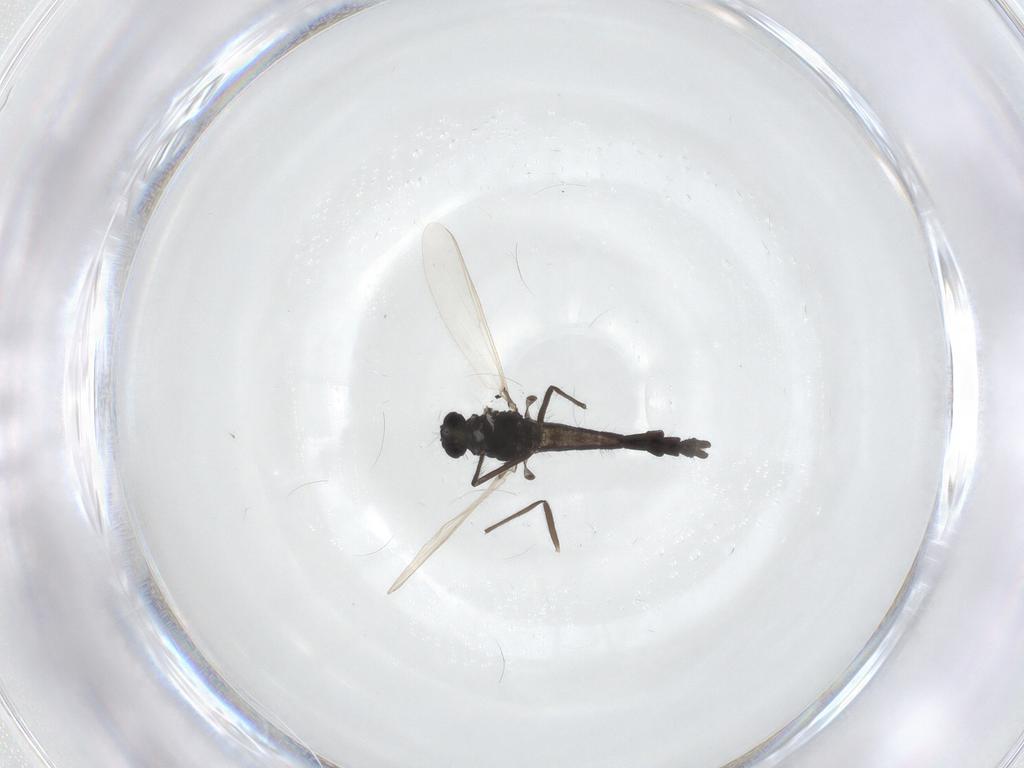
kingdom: Animalia
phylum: Arthropoda
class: Insecta
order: Diptera
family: Chironomidae
